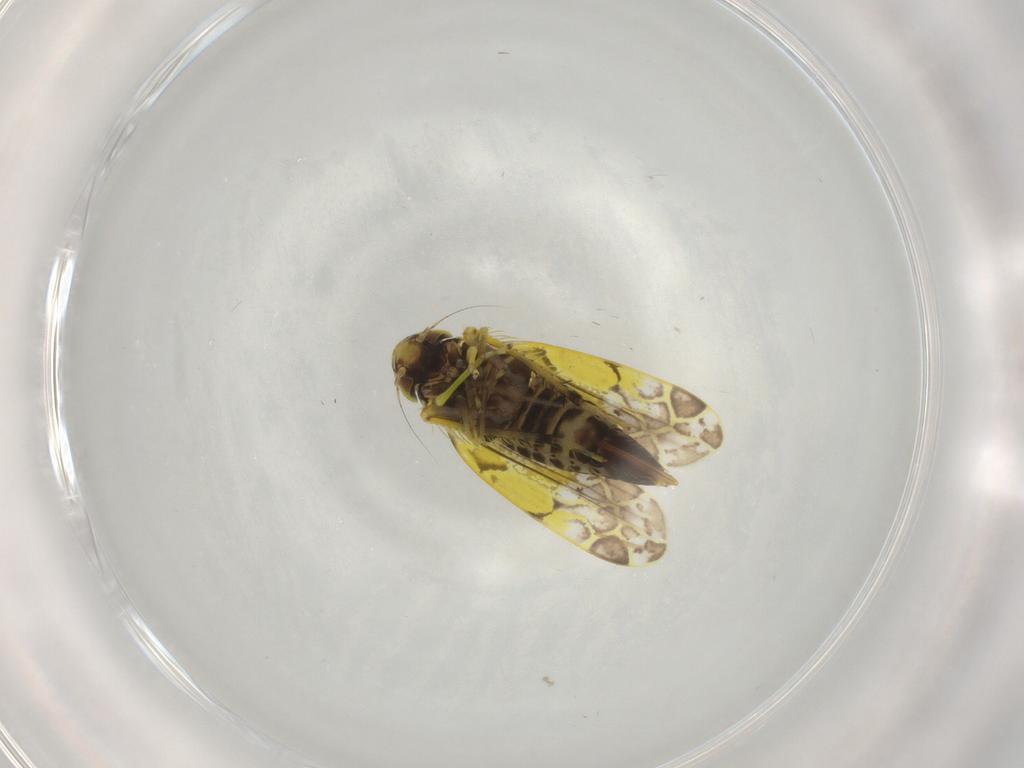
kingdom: Animalia
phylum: Arthropoda
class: Insecta
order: Hemiptera
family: Cicadellidae
